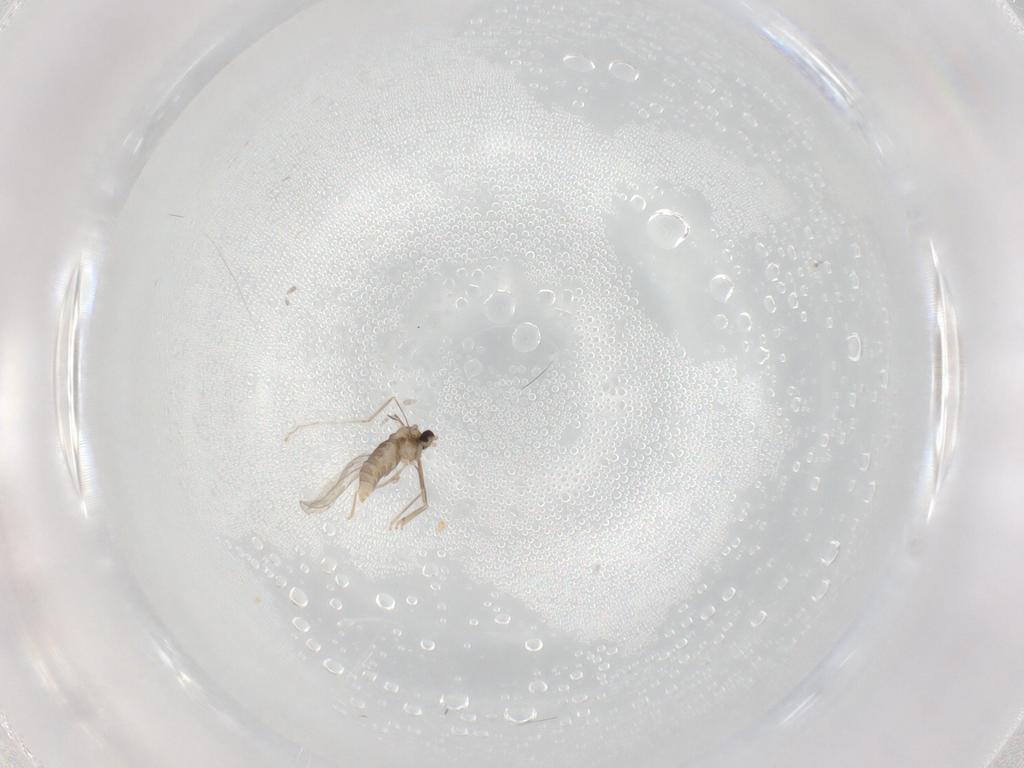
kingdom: Animalia
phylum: Arthropoda
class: Insecta
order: Diptera
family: Cecidomyiidae
